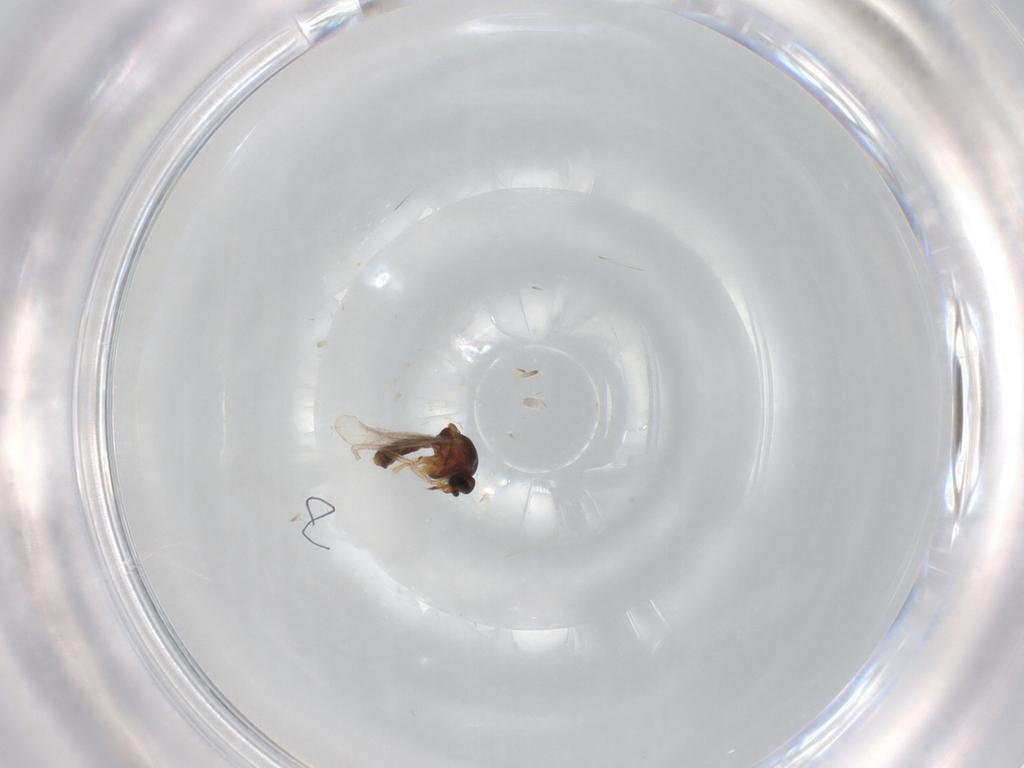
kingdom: Animalia
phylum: Arthropoda
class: Insecta
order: Diptera
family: Ceratopogonidae
